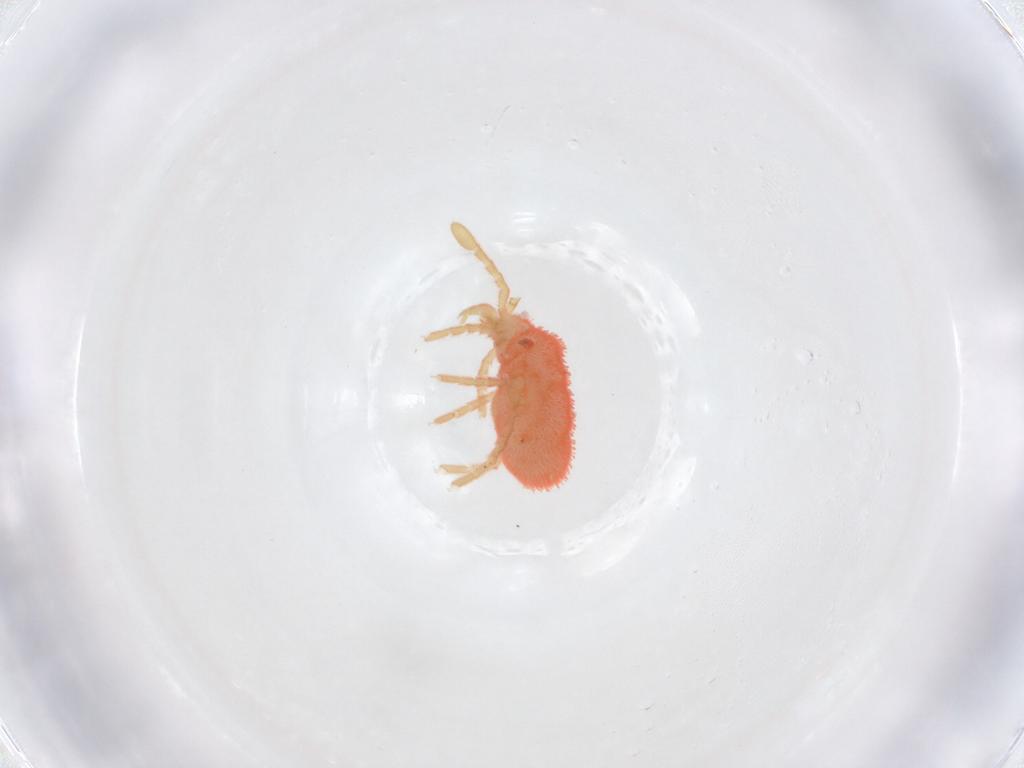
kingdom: Animalia
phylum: Arthropoda
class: Arachnida
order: Trombidiformes
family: Trombidiidae
